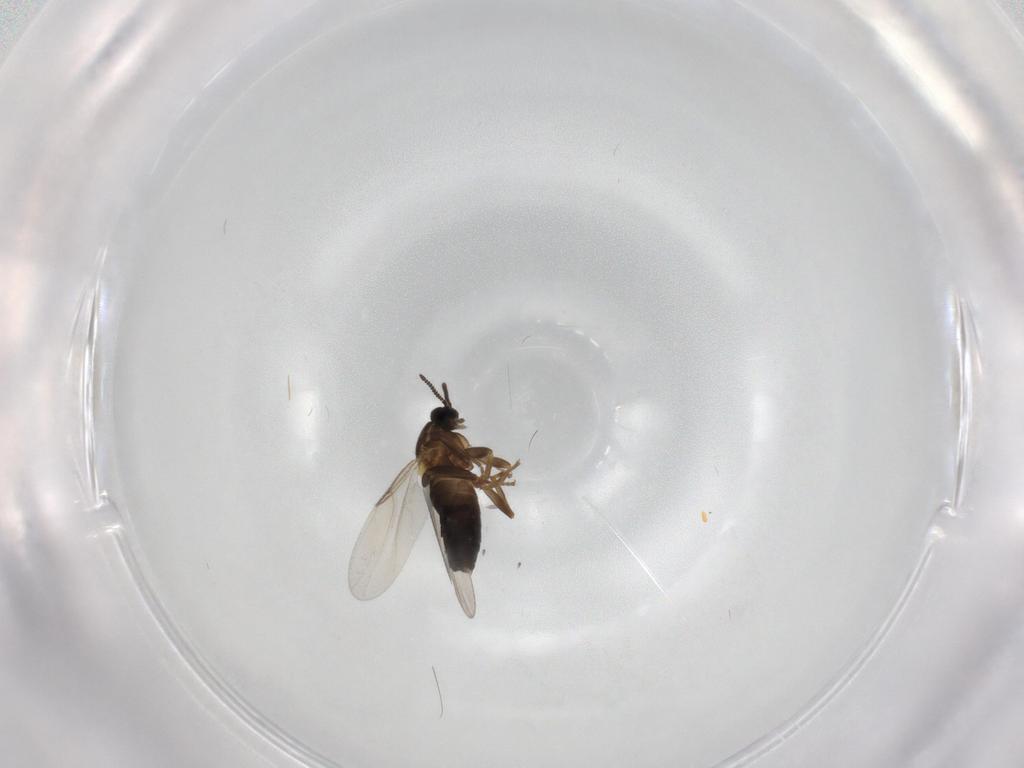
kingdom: Animalia
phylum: Arthropoda
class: Insecta
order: Diptera
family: Scatopsidae
